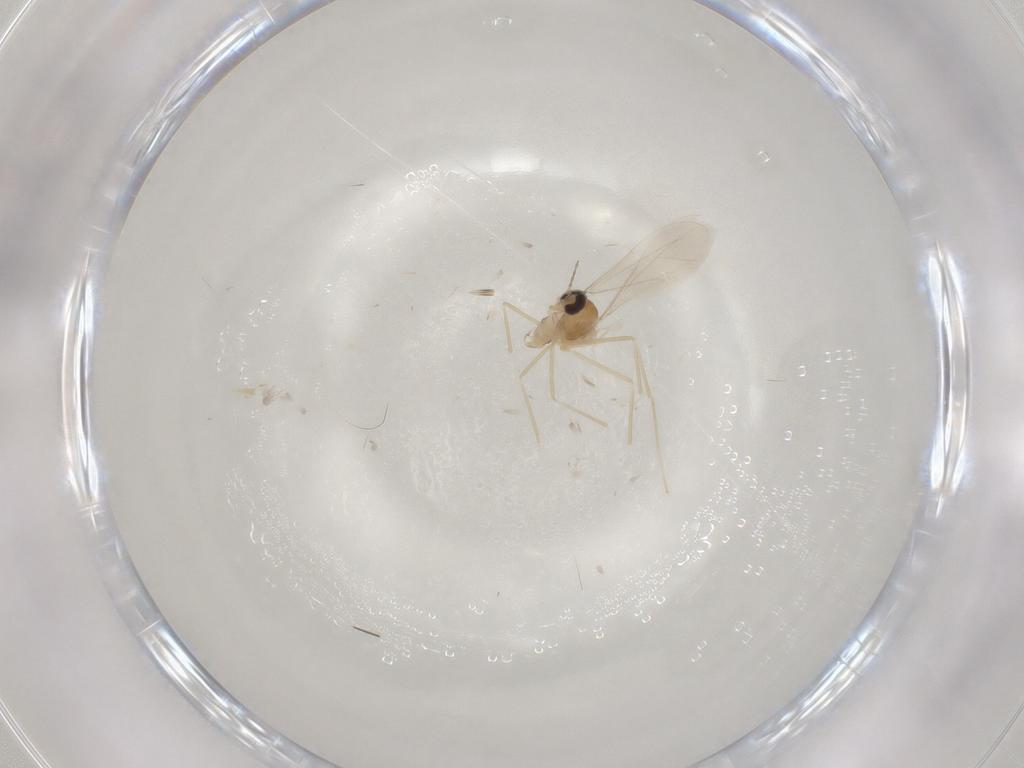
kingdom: Animalia
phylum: Arthropoda
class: Insecta
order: Diptera
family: Cecidomyiidae
